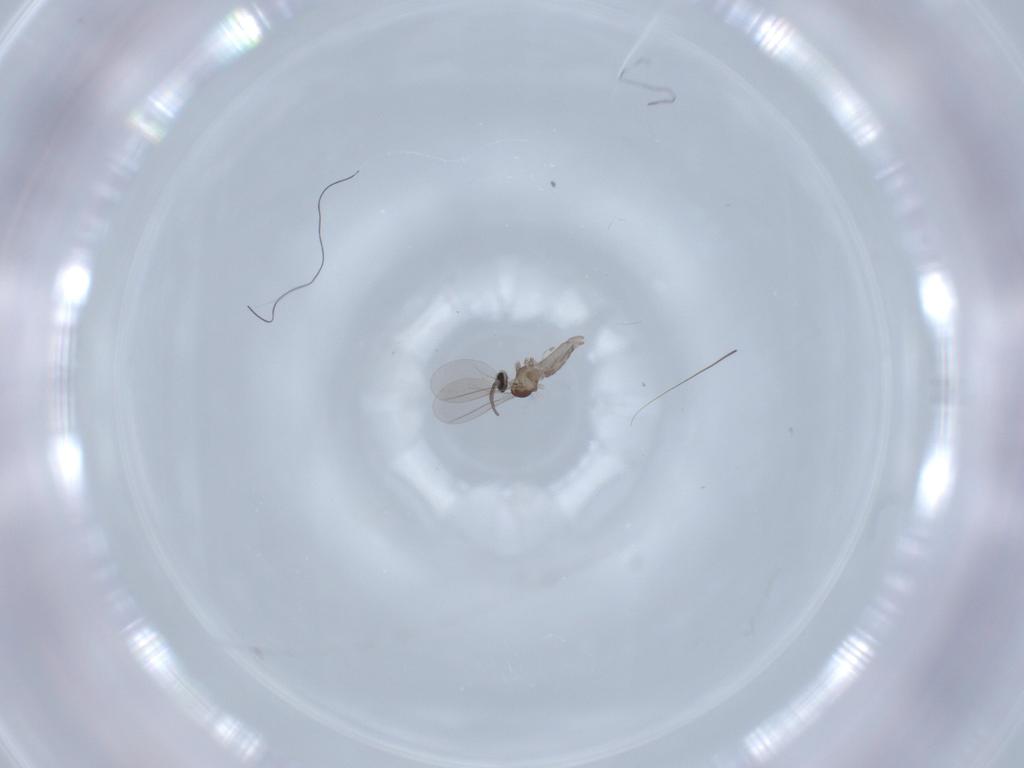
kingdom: Animalia
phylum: Arthropoda
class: Insecta
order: Diptera
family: Cecidomyiidae
